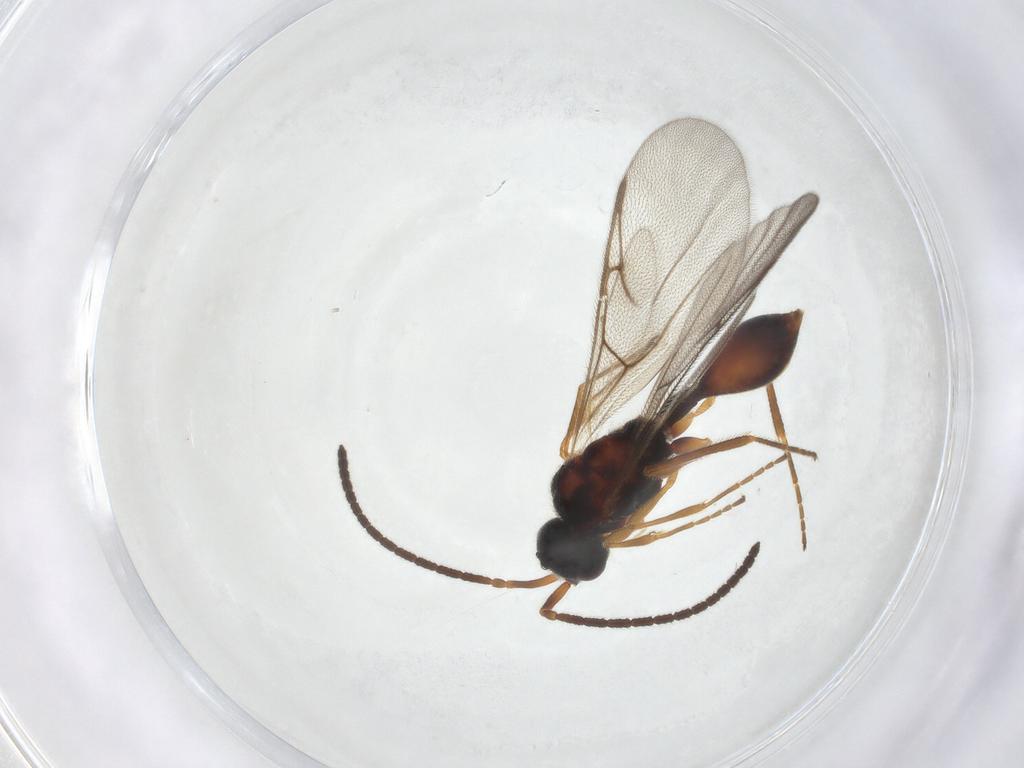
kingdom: Animalia
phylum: Arthropoda
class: Insecta
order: Hymenoptera
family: Diapriidae
